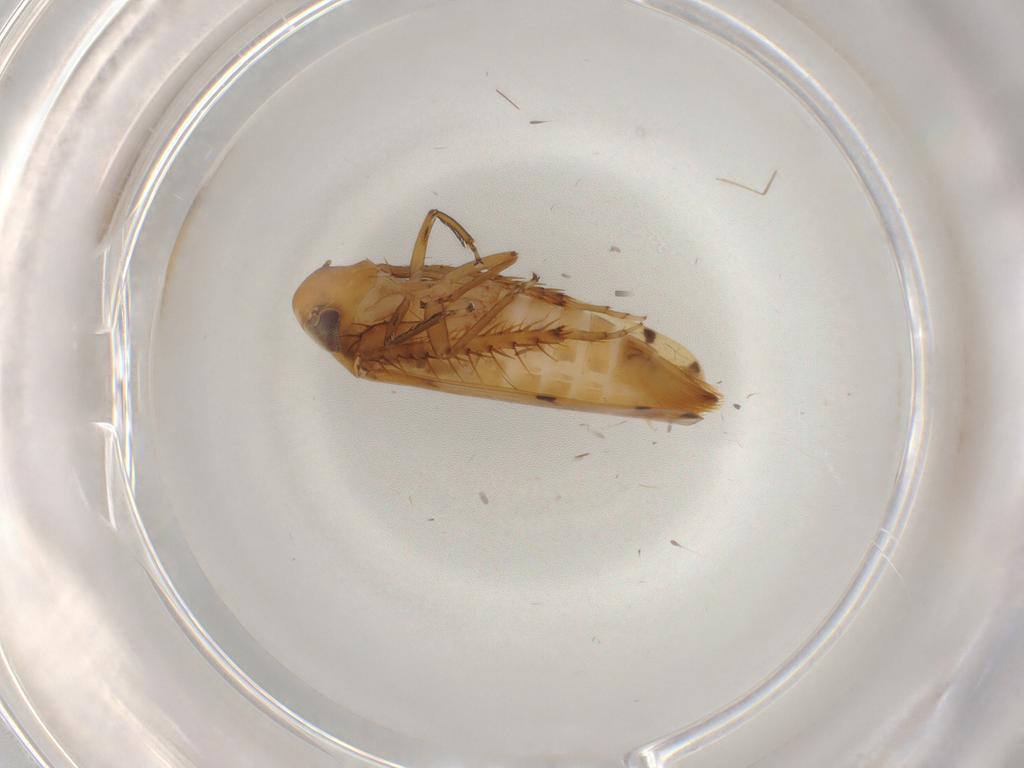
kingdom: Animalia
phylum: Arthropoda
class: Insecta
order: Hemiptera
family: Cicadellidae
